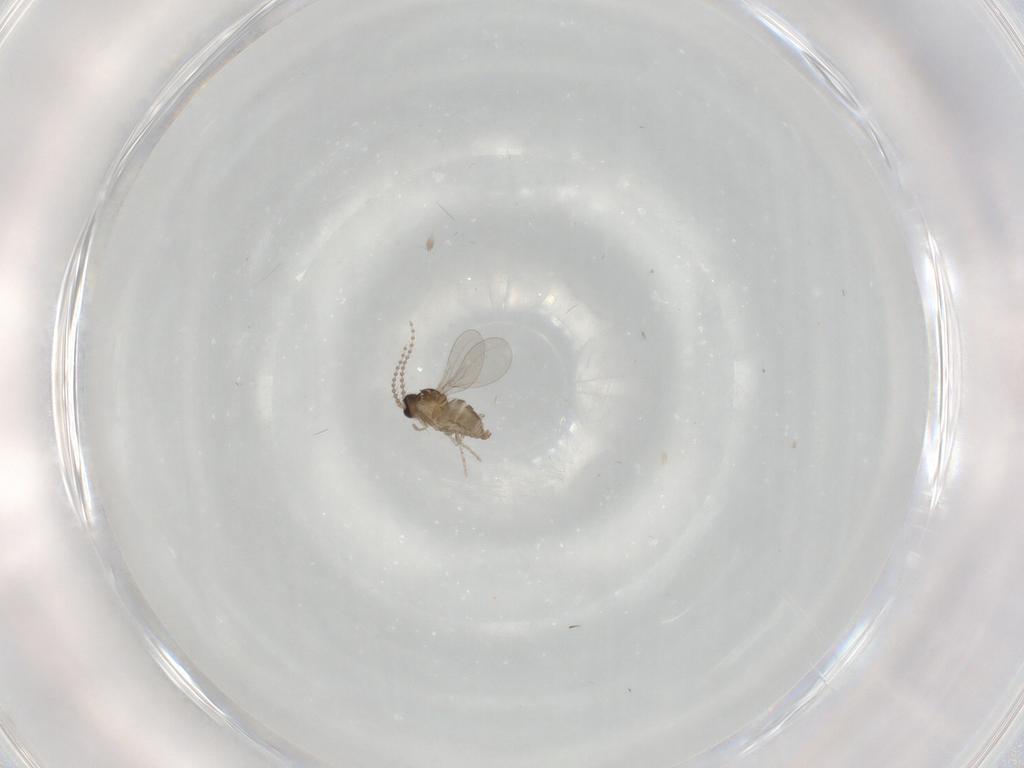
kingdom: Animalia
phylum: Arthropoda
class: Insecta
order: Diptera
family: Cecidomyiidae
